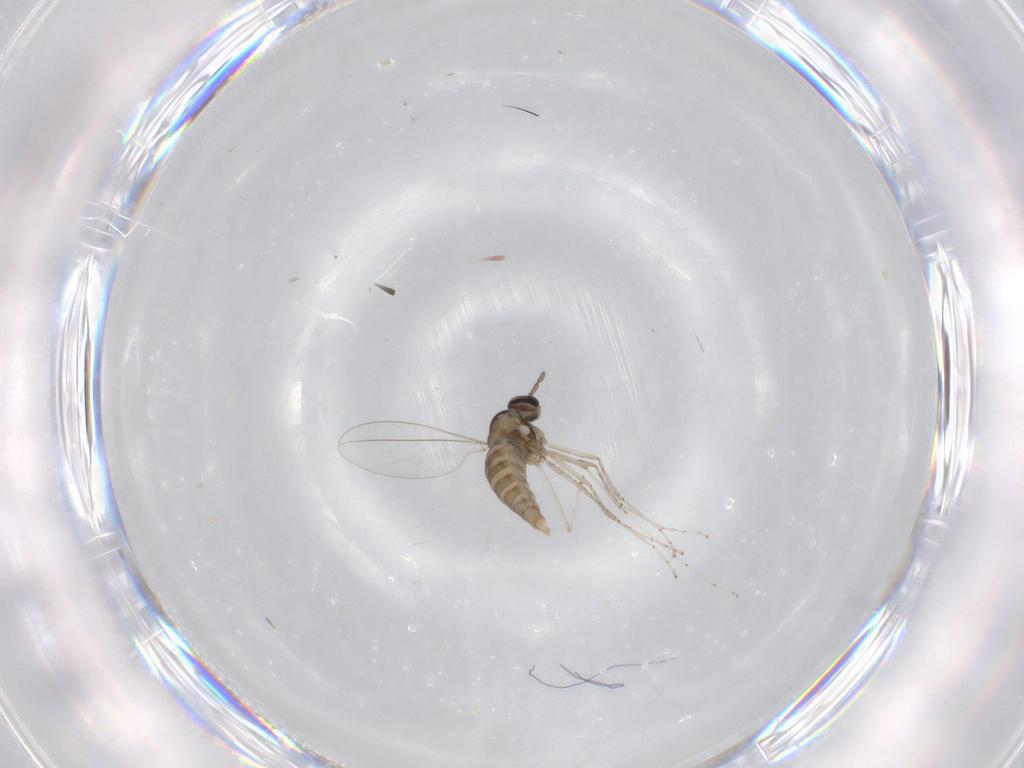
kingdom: Animalia
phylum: Arthropoda
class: Insecta
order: Diptera
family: Cecidomyiidae
